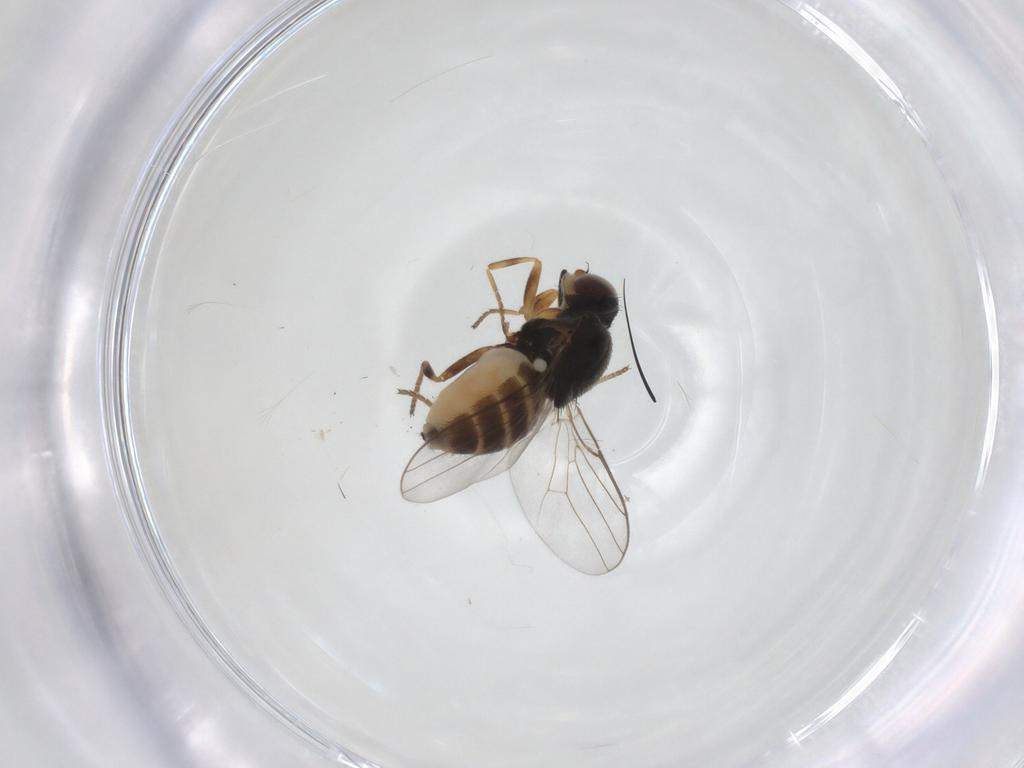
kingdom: Animalia
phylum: Arthropoda
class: Insecta
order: Diptera
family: Chloropidae
